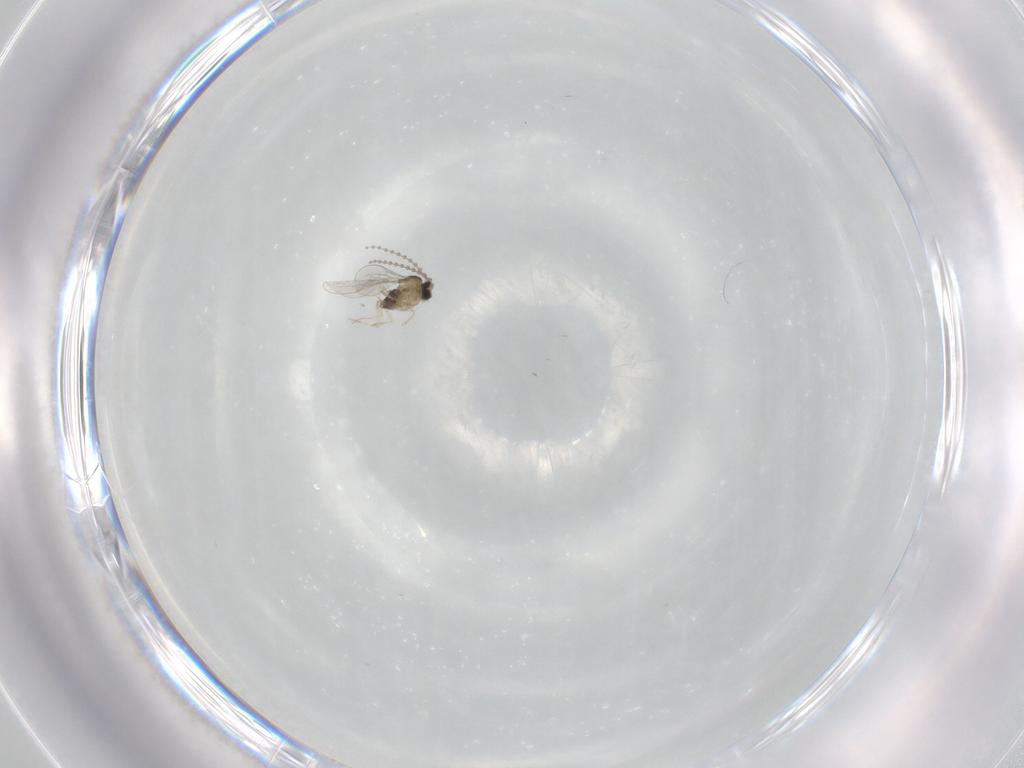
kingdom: Animalia
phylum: Arthropoda
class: Insecta
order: Diptera
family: Cecidomyiidae
